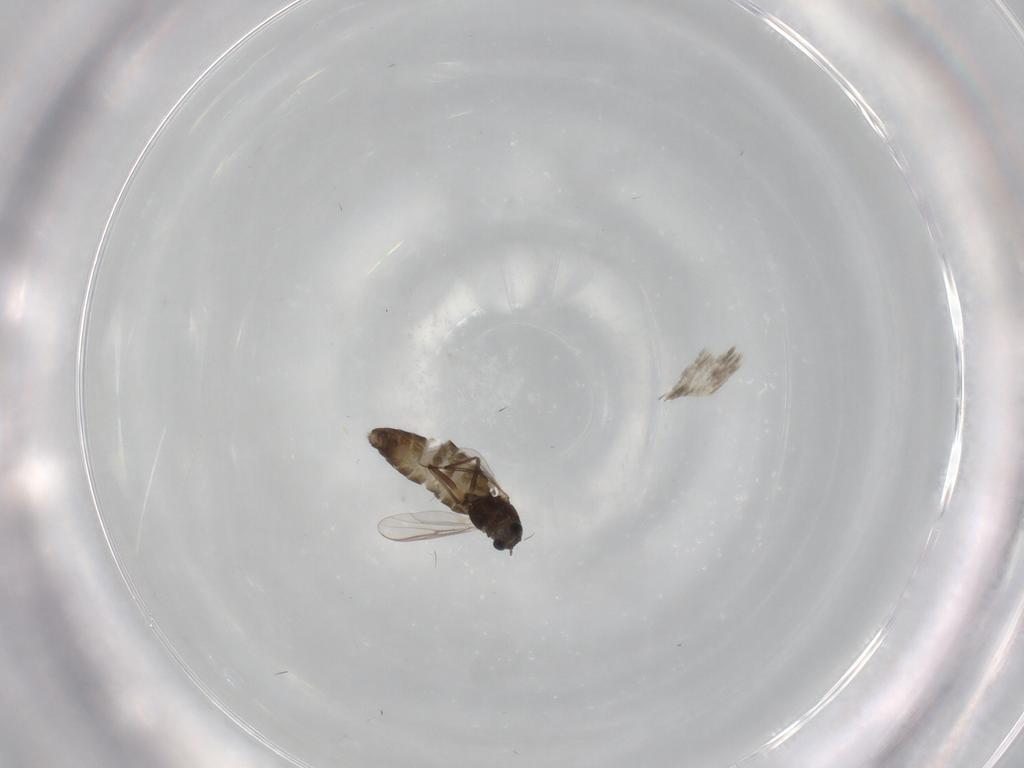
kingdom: Animalia
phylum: Arthropoda
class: Insecta
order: Diptera
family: Chironomidae
